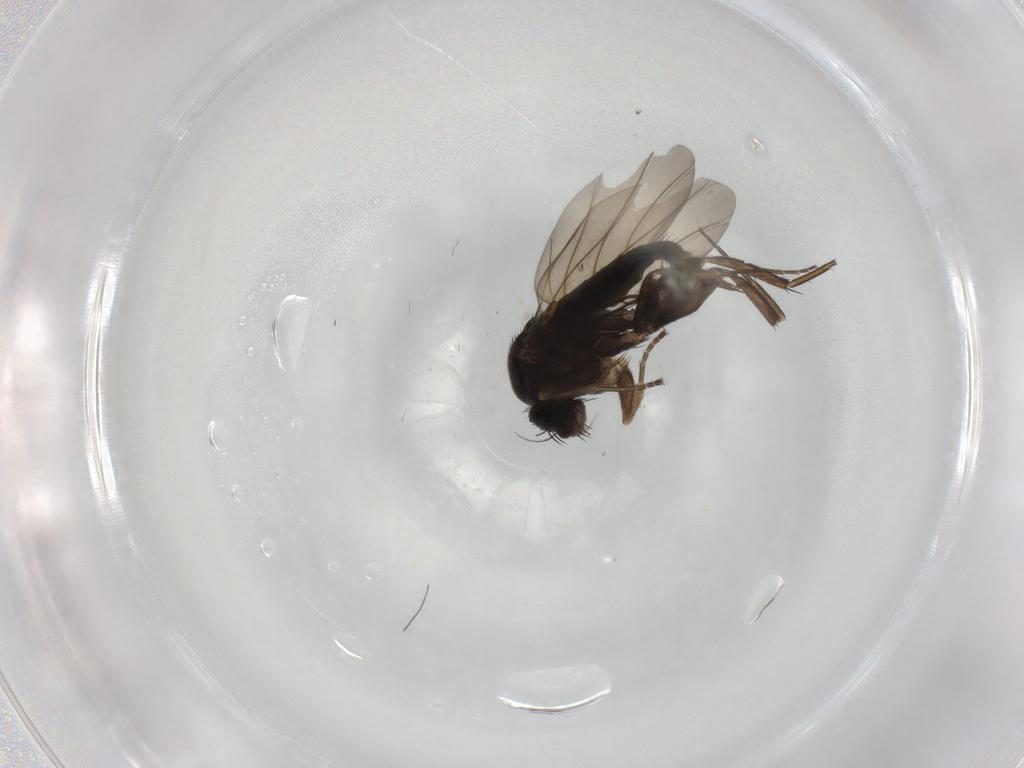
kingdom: Animalia
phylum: Arthropoda
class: Insecta
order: Diptera
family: Phoridae
